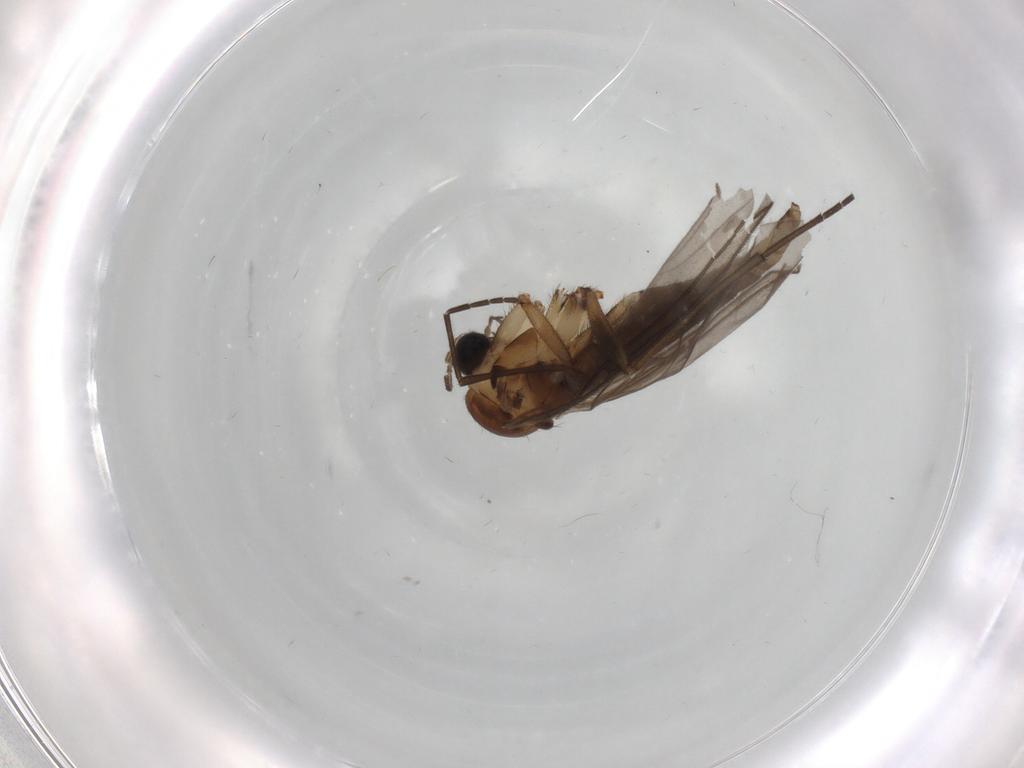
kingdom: Animalia
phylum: Arthropoda
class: Insecta
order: Diptera
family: Sciaridae
